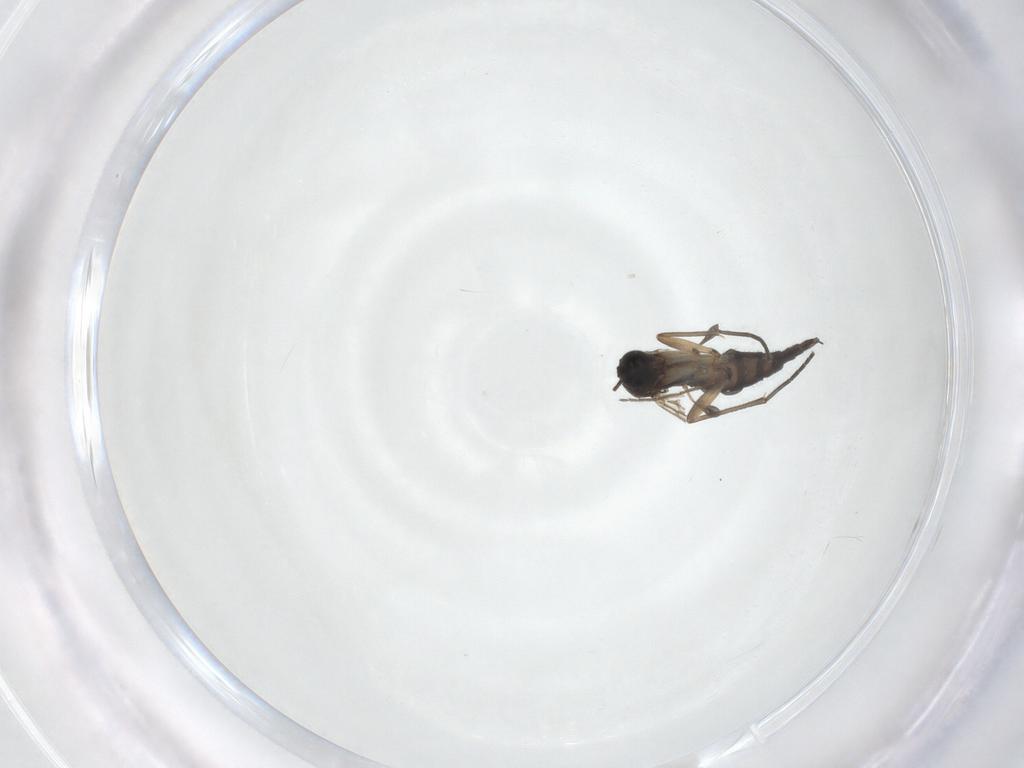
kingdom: Animalia
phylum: Arthropoda
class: Insecta
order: Diptera
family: Sciaridae
